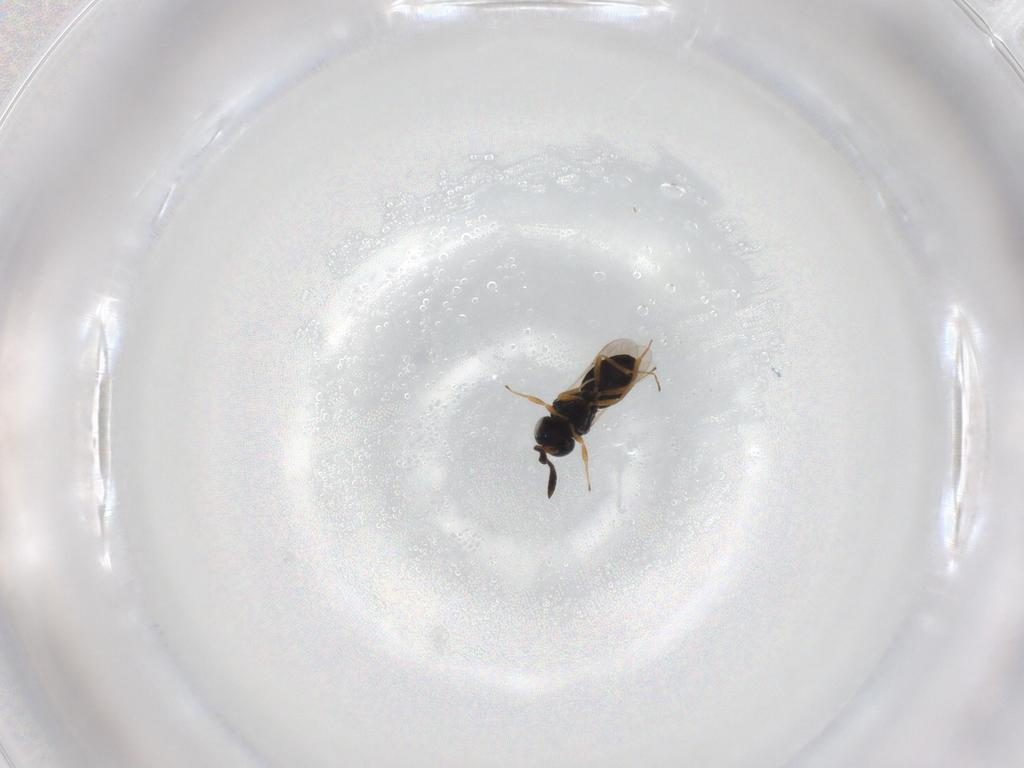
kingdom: Animalia
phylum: Arthropoda
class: Insecta
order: Hymenoptera
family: Scelionidae
